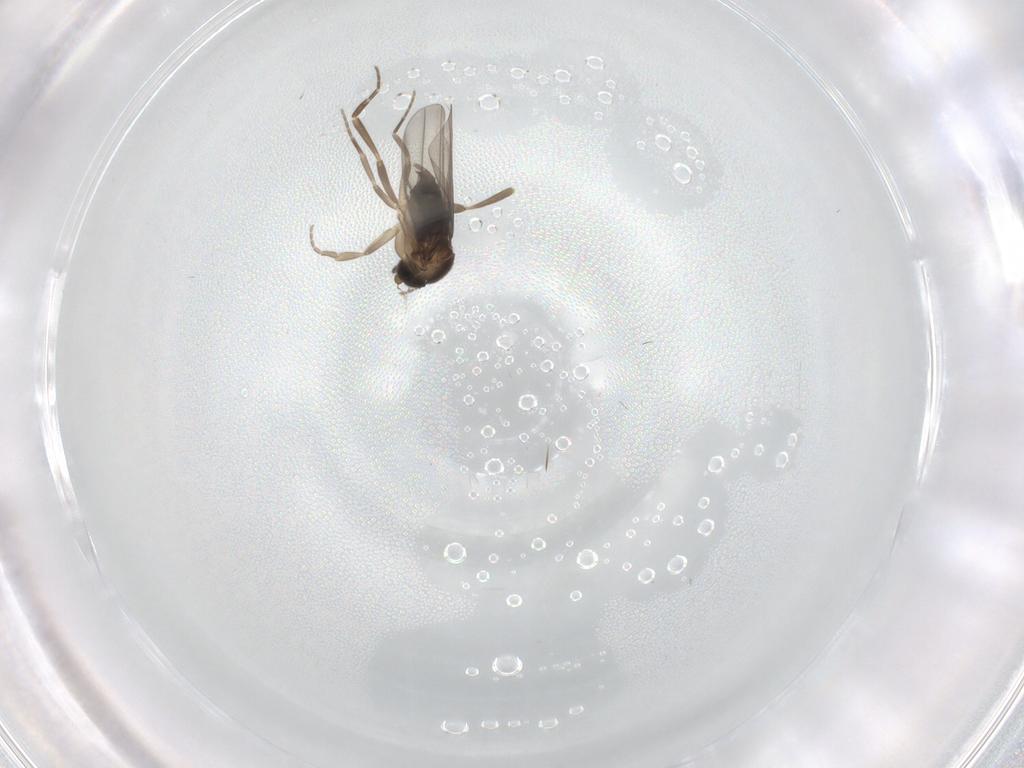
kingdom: Animalia
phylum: Arthropoda
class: Insecta
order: Diptera
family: Phoridae
